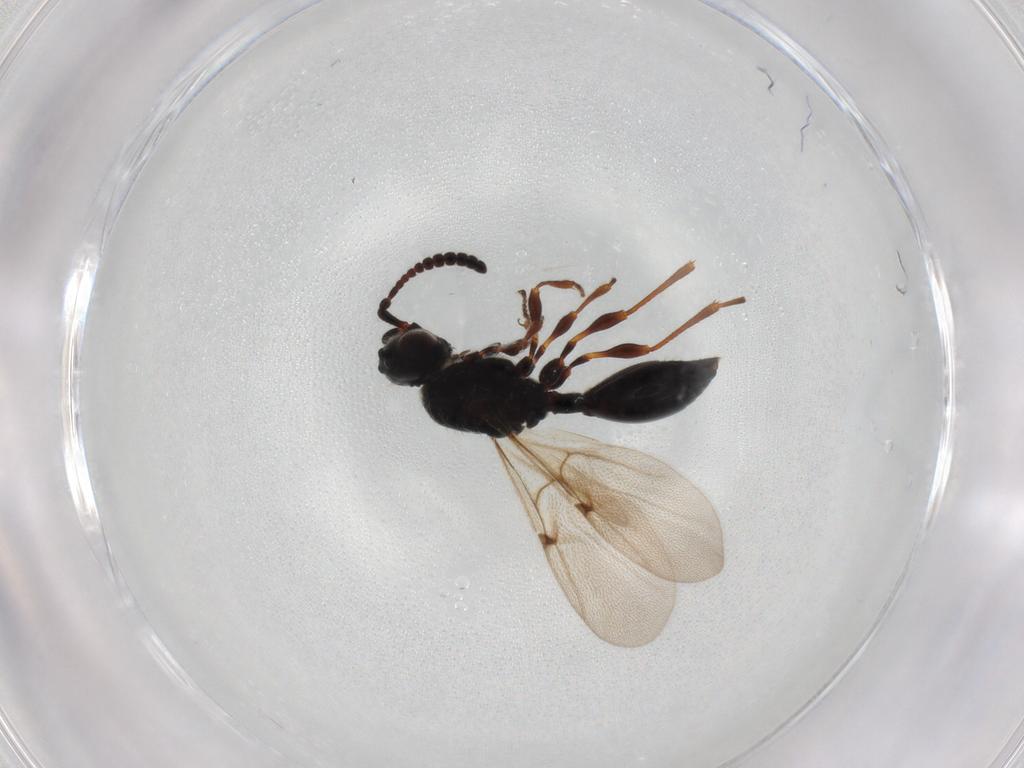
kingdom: Animalia
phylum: Arthropoda
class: Insecta
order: Hymenoptera
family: Diapriidae
